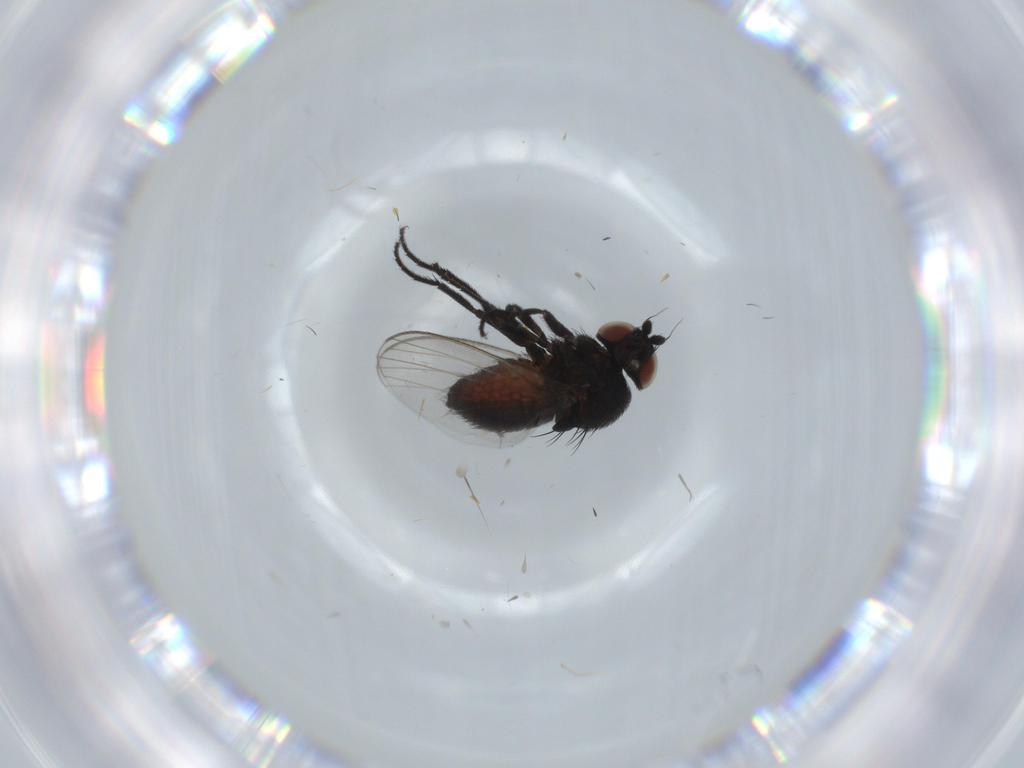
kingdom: Animalia
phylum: Arthropoda
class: Insecta
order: Diptera
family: Milichiidae
